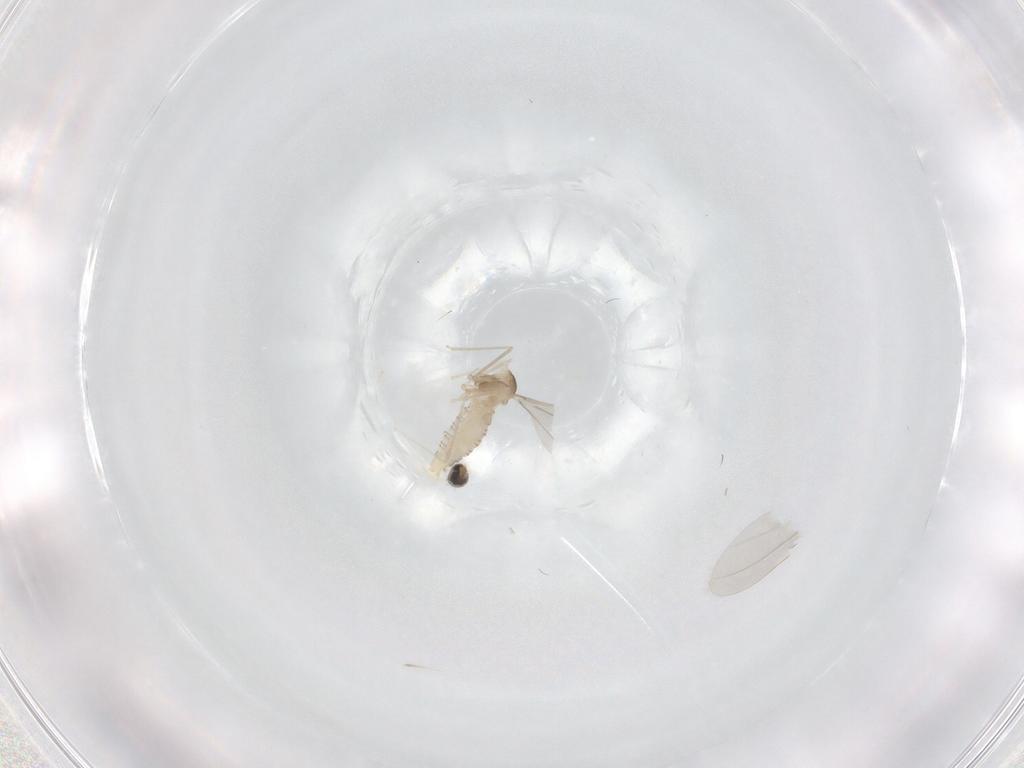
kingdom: Animalia
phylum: Arthropoda
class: Insecta
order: Diptera
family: Cecidomyiidae
